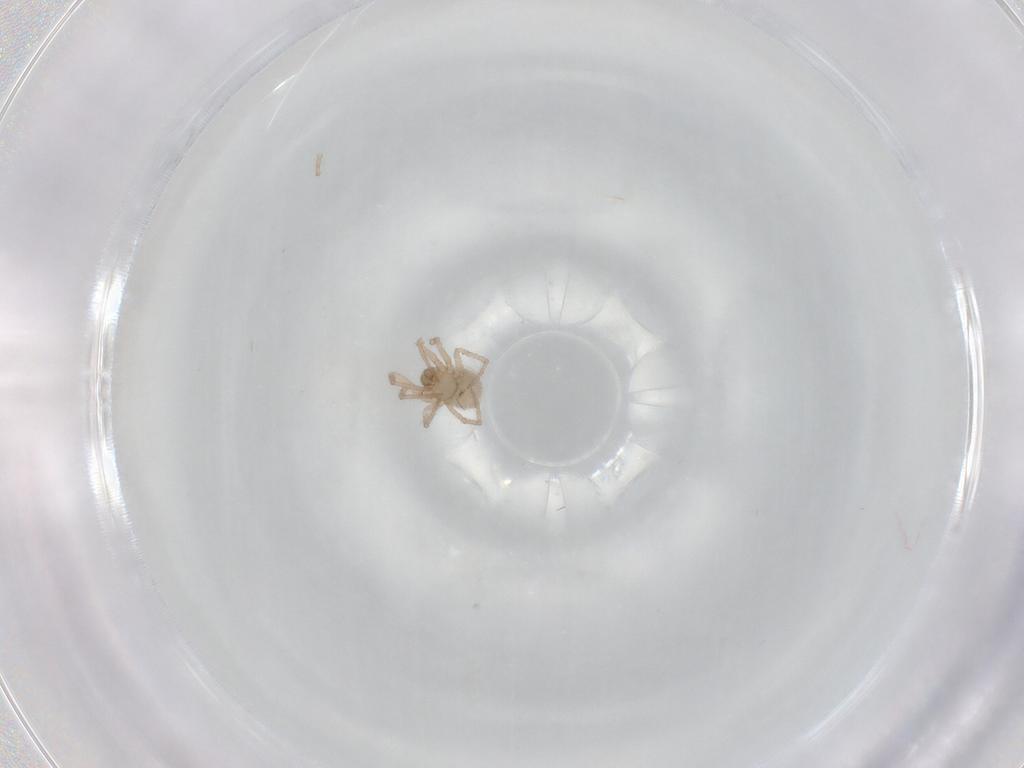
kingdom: Animalia
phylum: Arthropoda
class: Arachnida
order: Araneae
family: Symphytognathidae
